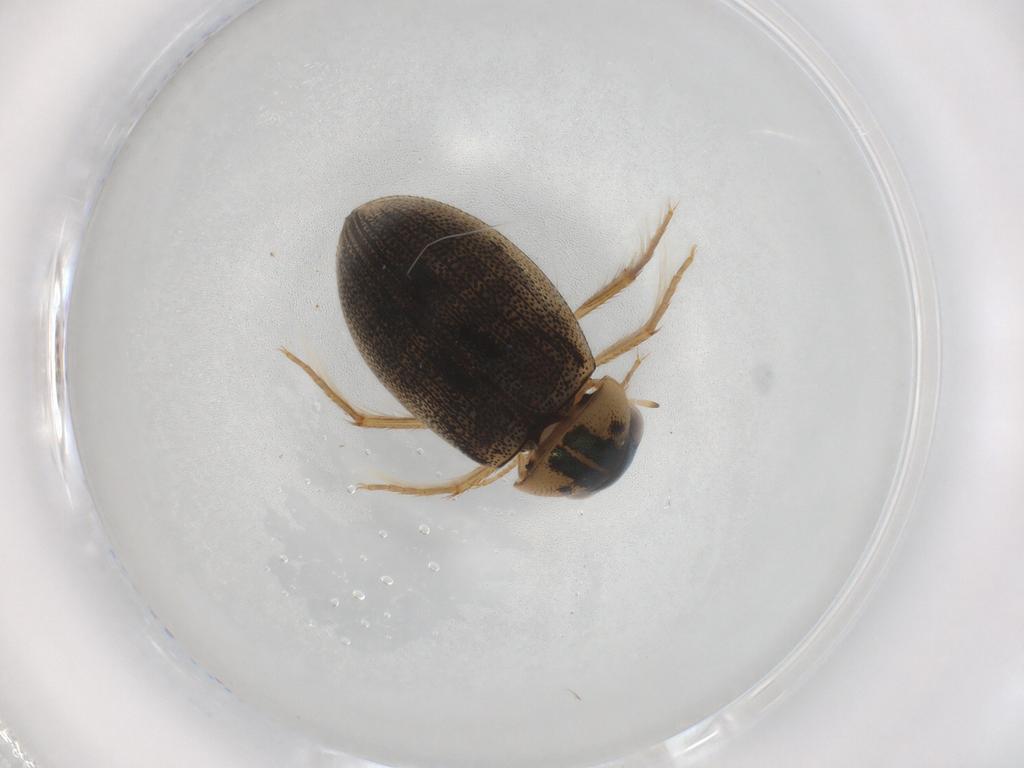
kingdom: Animalia
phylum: Arthropoda
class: Insecta
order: Coleoptera
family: Hydrophilidae
